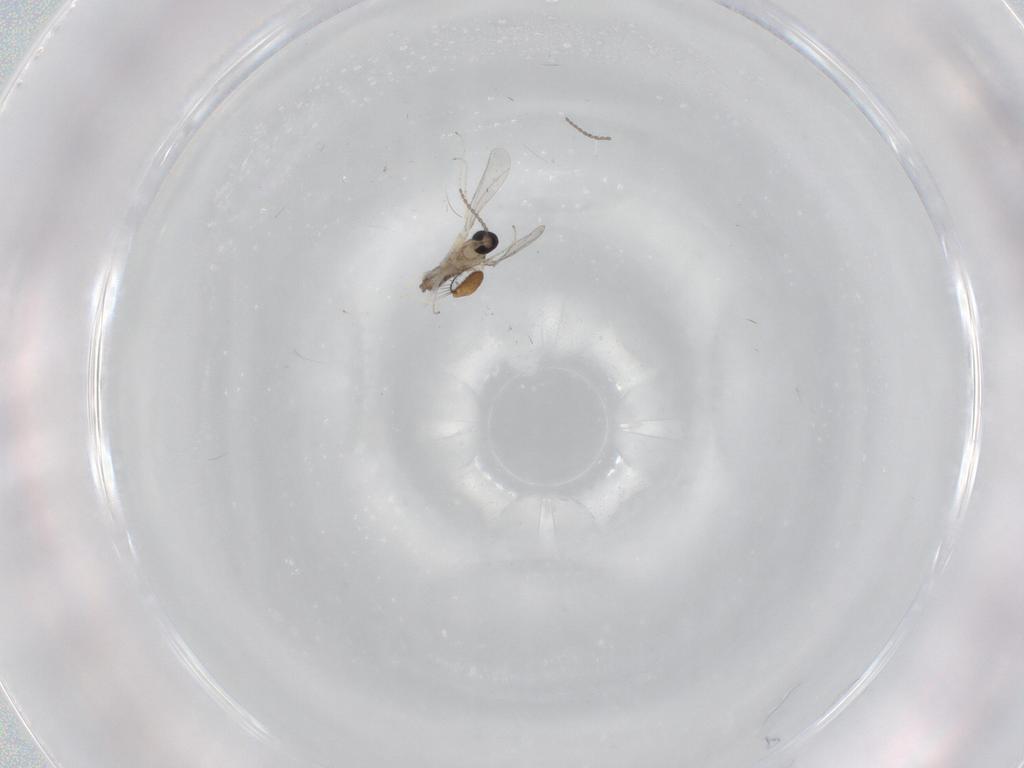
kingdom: Animalia
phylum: Arthropoda
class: Insecta
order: Diptera
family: Cecidomyiidae
